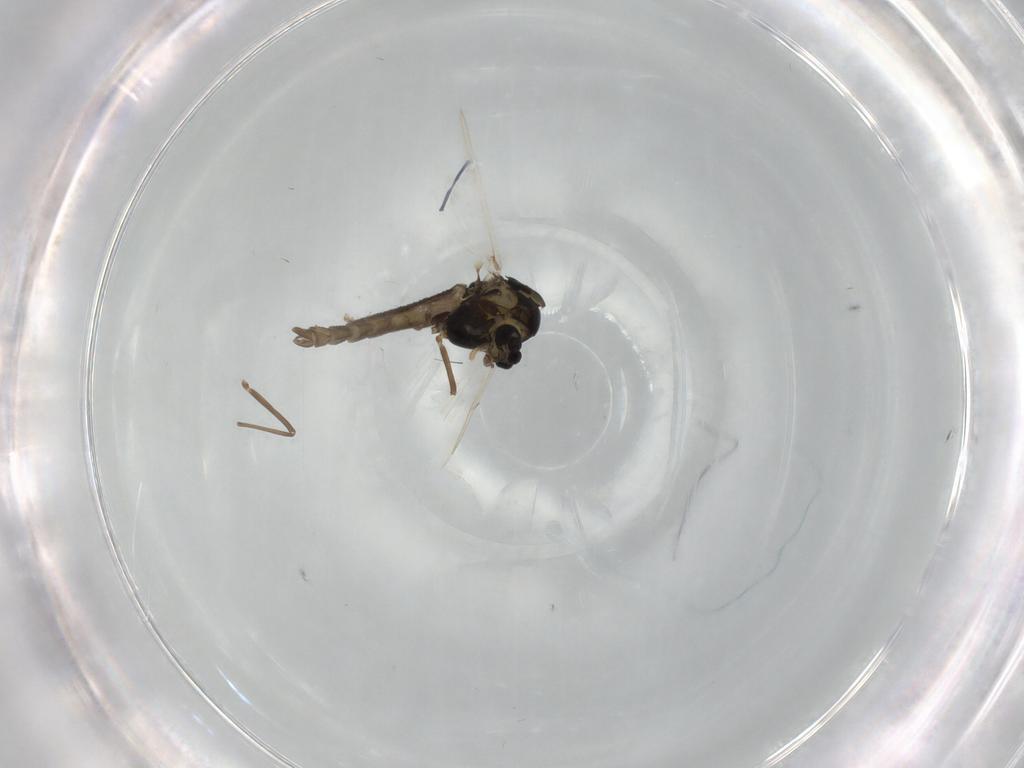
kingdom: Animalia
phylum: Arthropoda
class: Insecta
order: Diptera
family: Chironomidae
